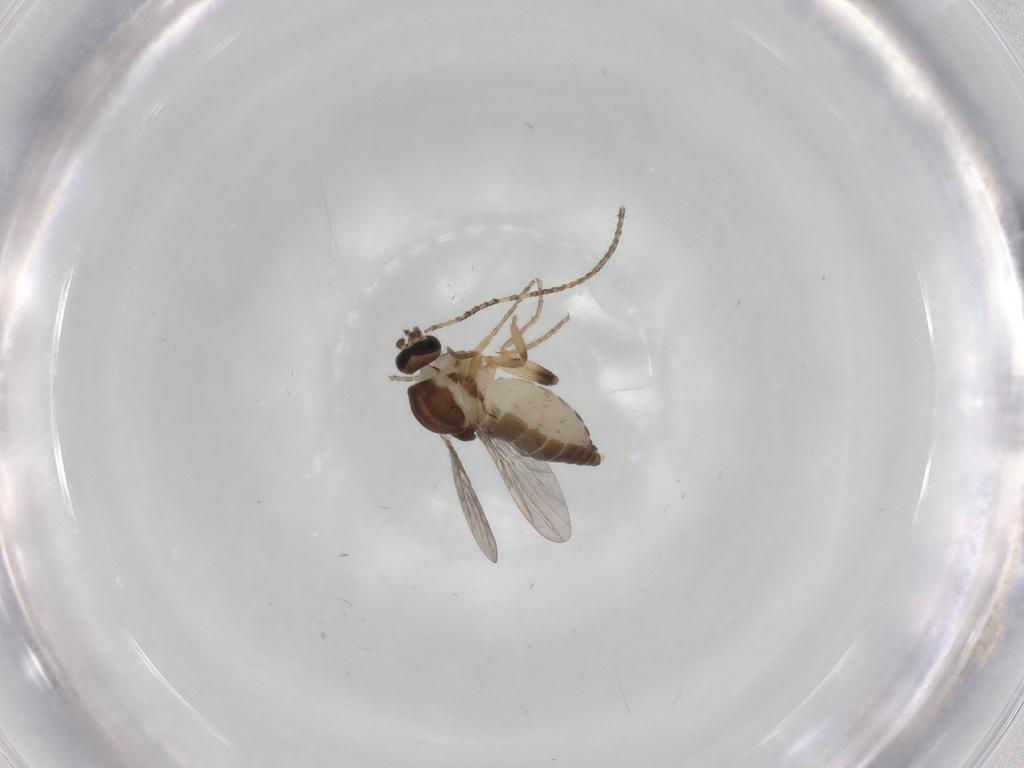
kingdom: Animalia
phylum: Arthropoda
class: Insecta
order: Diptera
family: Ceratopogonidae
